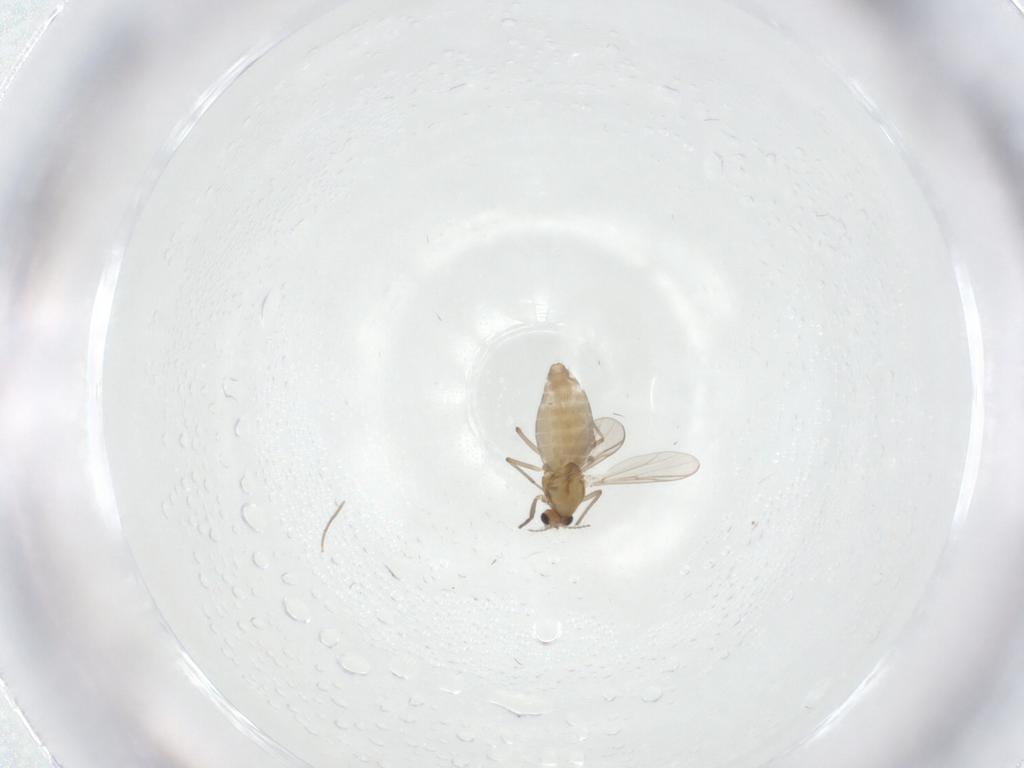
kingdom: Animalia
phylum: Arthropoda
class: Insecta
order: Diptera
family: Chironomidae
